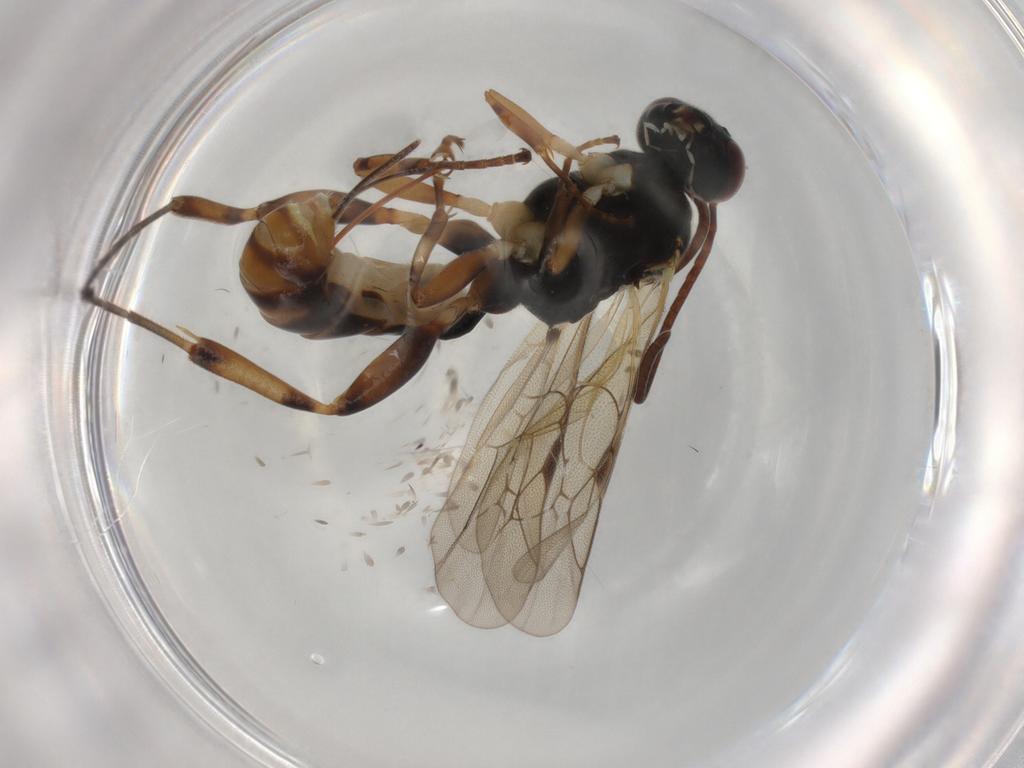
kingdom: Animalia
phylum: Arthropoda
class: Insecta
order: Hymenoptera
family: Ichneumonidae
